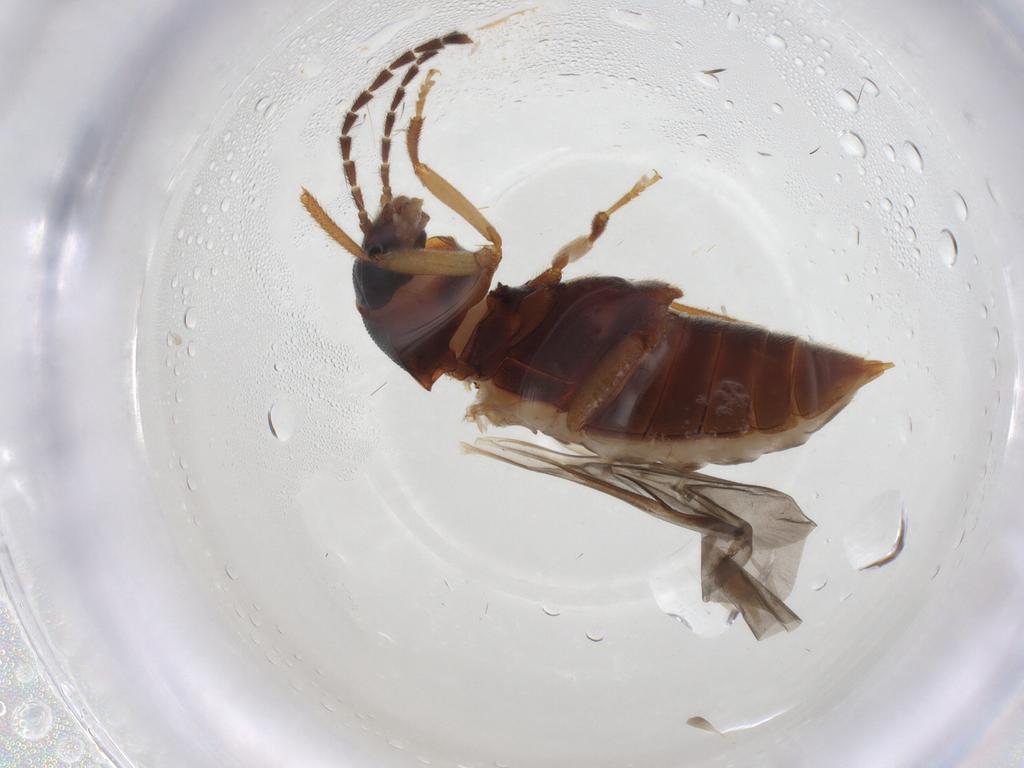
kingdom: Animalia
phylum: Arthropoda
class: Insecta
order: Coleoptera
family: Ptilodactylidae
